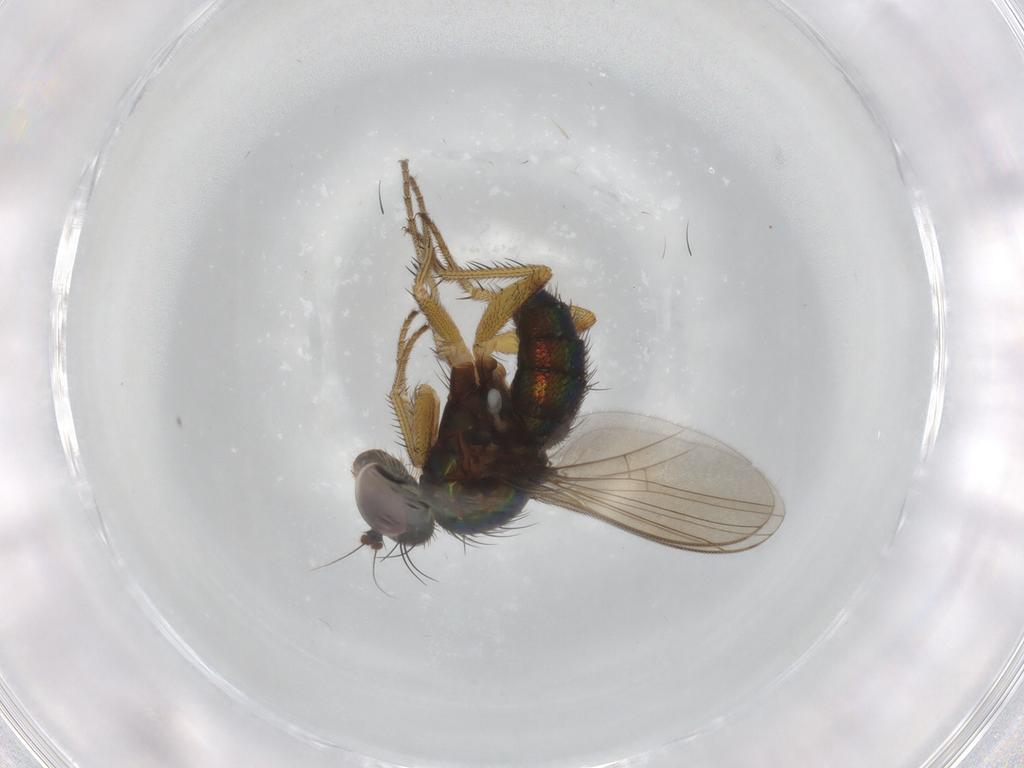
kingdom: Animalia
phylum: Arthropoda
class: Insecta
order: Diptera
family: Dolichopodidae
